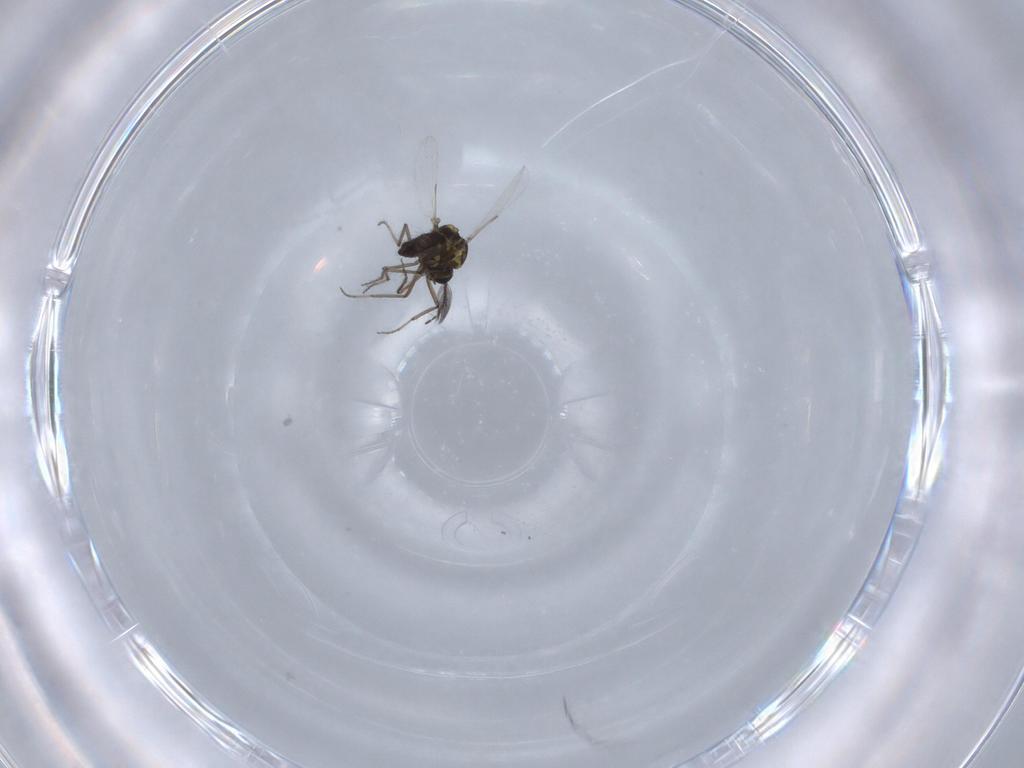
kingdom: Animalia
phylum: Arthropoda
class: Insecta
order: Diptera
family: Ceratopogonidae
